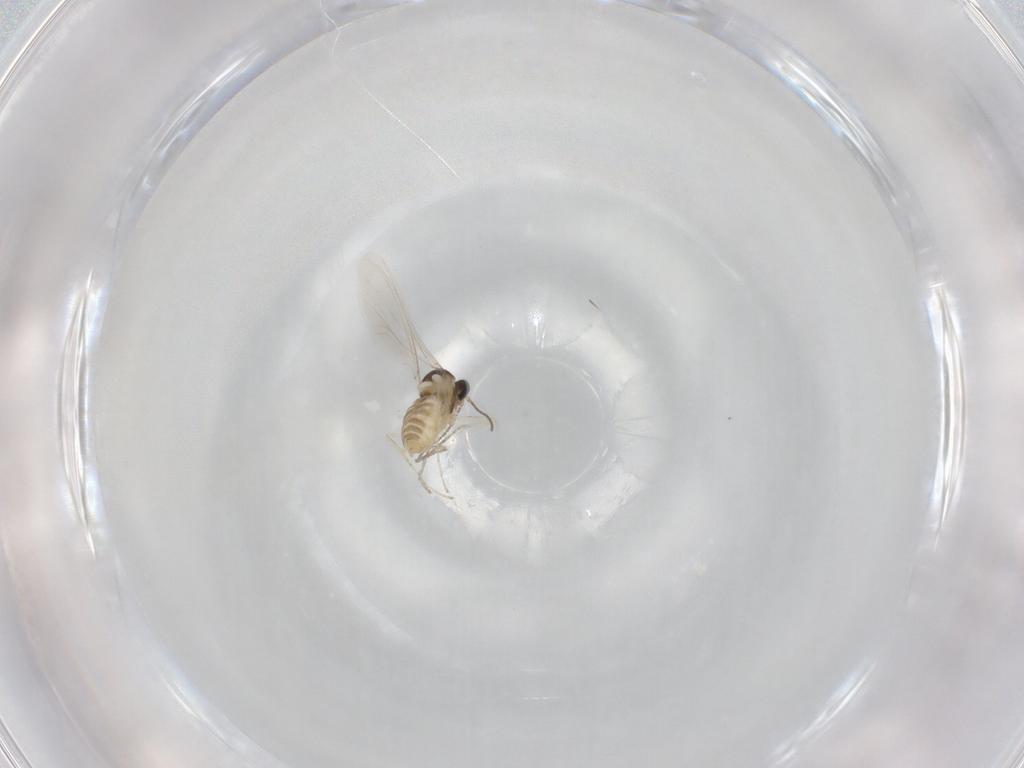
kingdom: Animalia
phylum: Arthropoda
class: Insecta
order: Diptera
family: Cecidomyiidae
